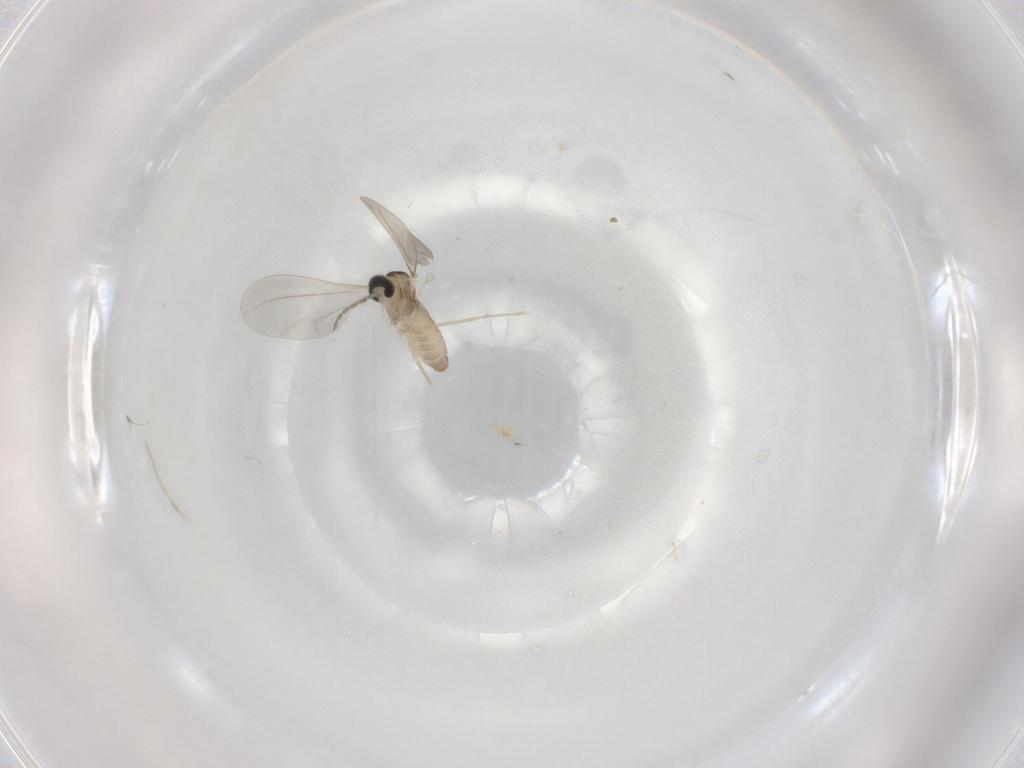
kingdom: Animalia
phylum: Arthropoda
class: Insecta
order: Diptera
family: Cecidomyiidae
